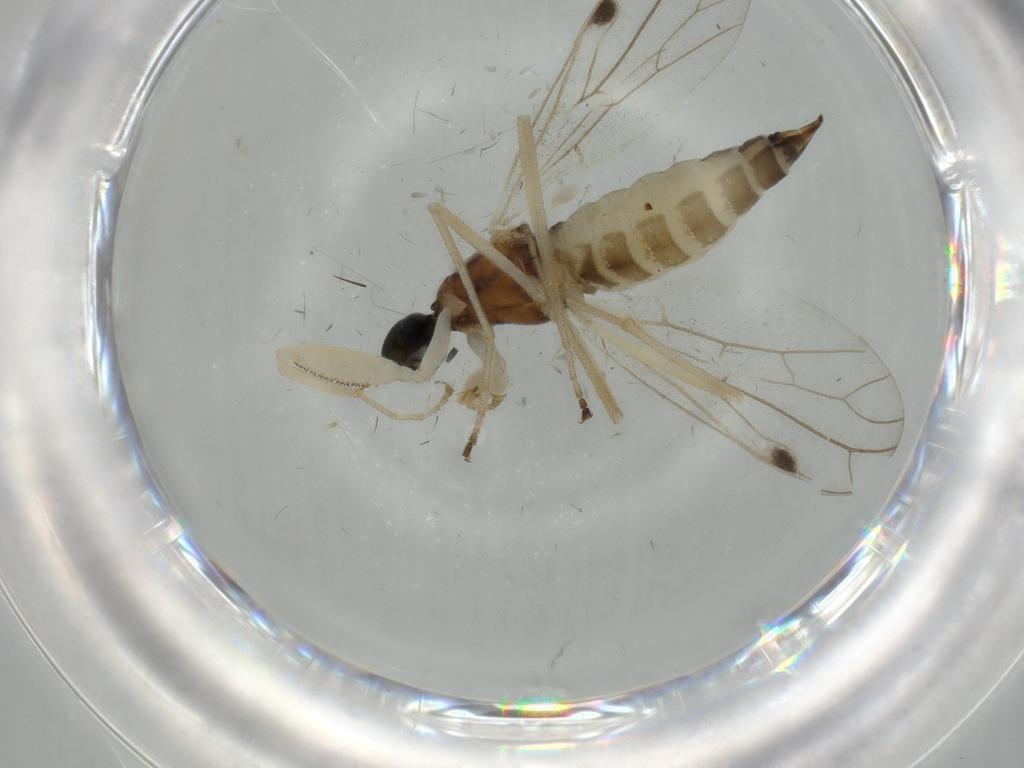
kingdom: Animalia
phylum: Arthropoda
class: Insecta
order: Diptera
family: Empididae
